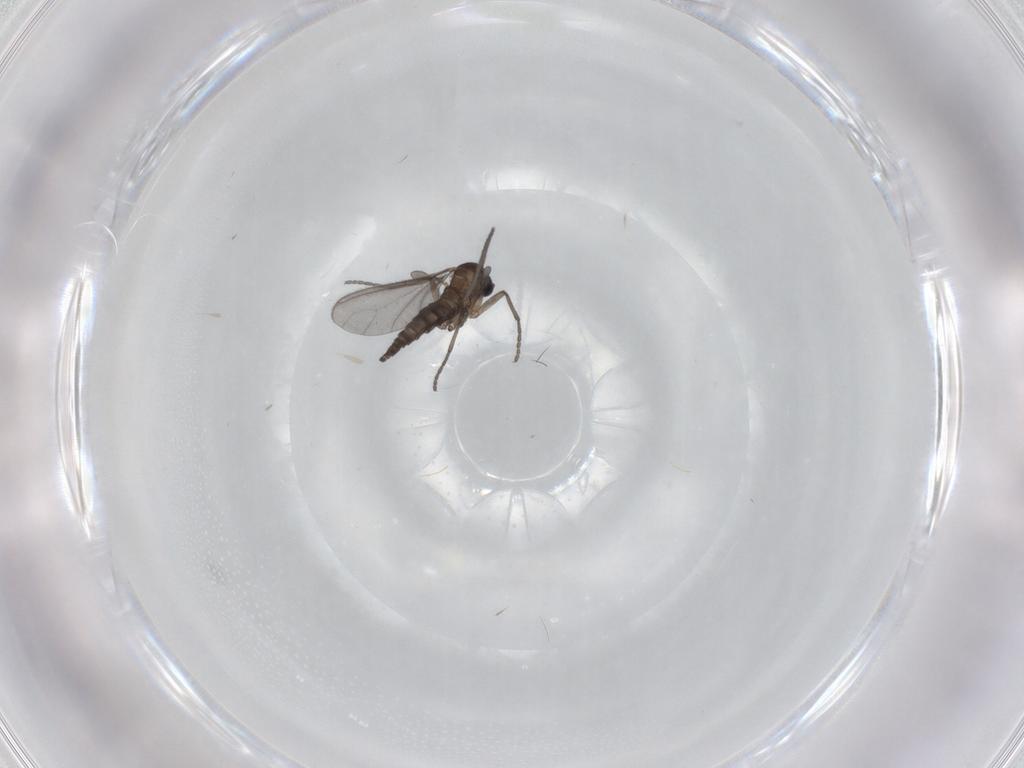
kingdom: Animalia
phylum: Arthropoda
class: Insecta
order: Diptera
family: Sciaridae
